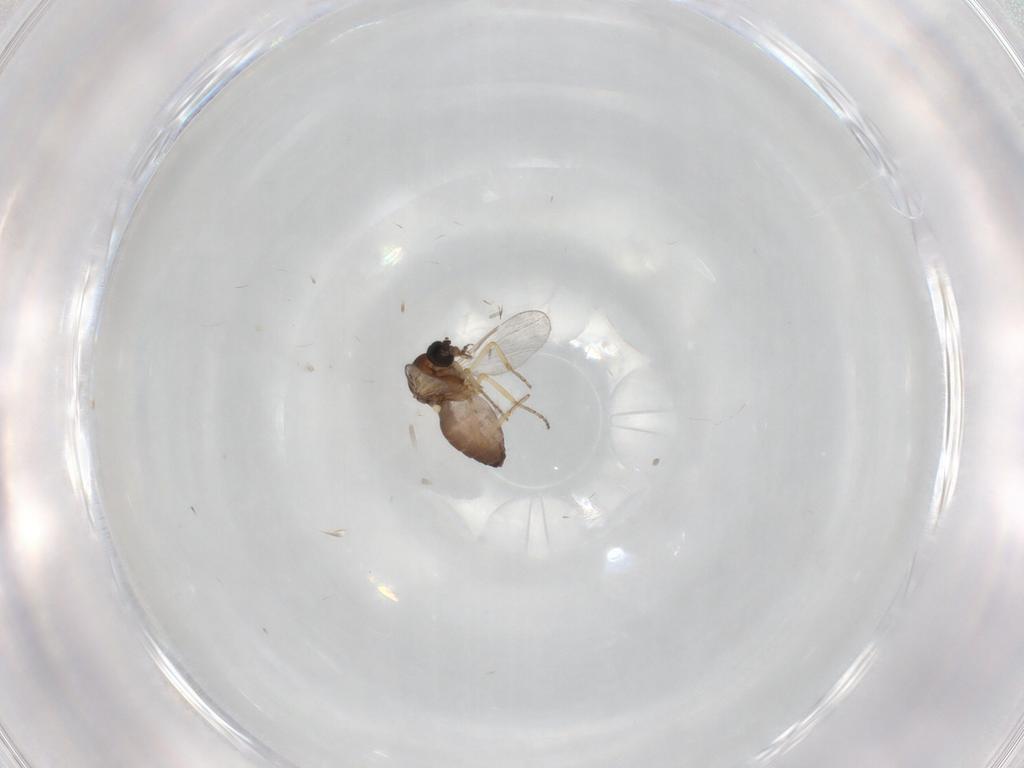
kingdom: Animalia
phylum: Arthropoda
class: Insecta
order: Diptera
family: Ceratopogonidae
